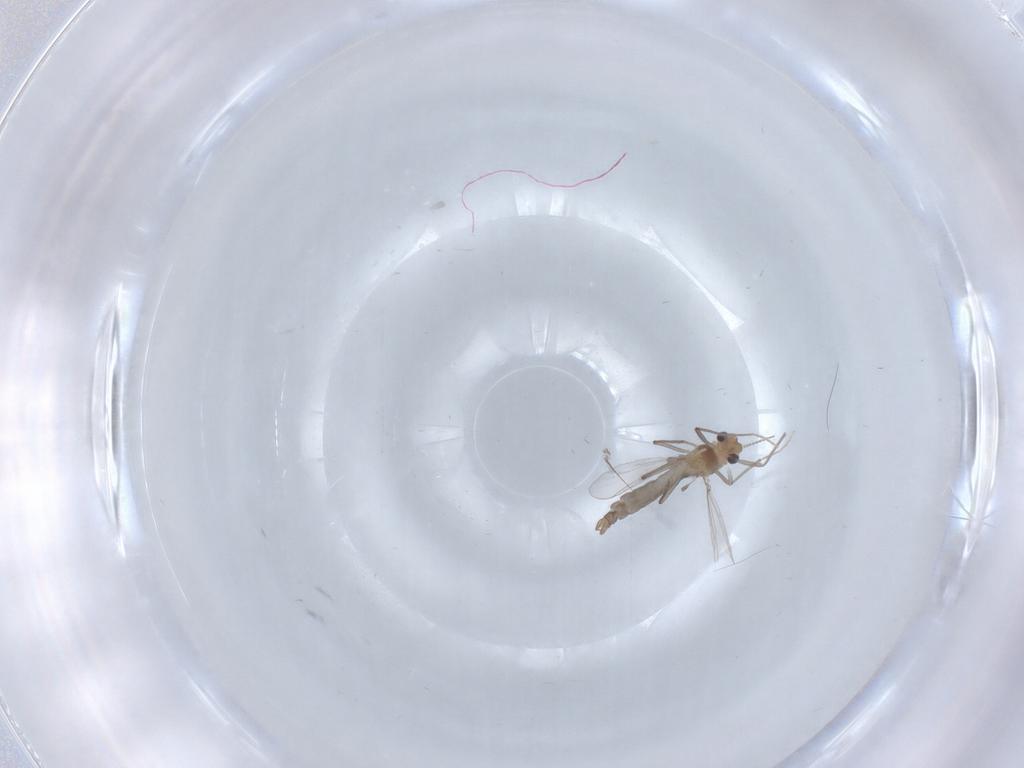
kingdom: Animalia
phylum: Arthropoda
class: Insecta
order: Diptera
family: Chironomidae
